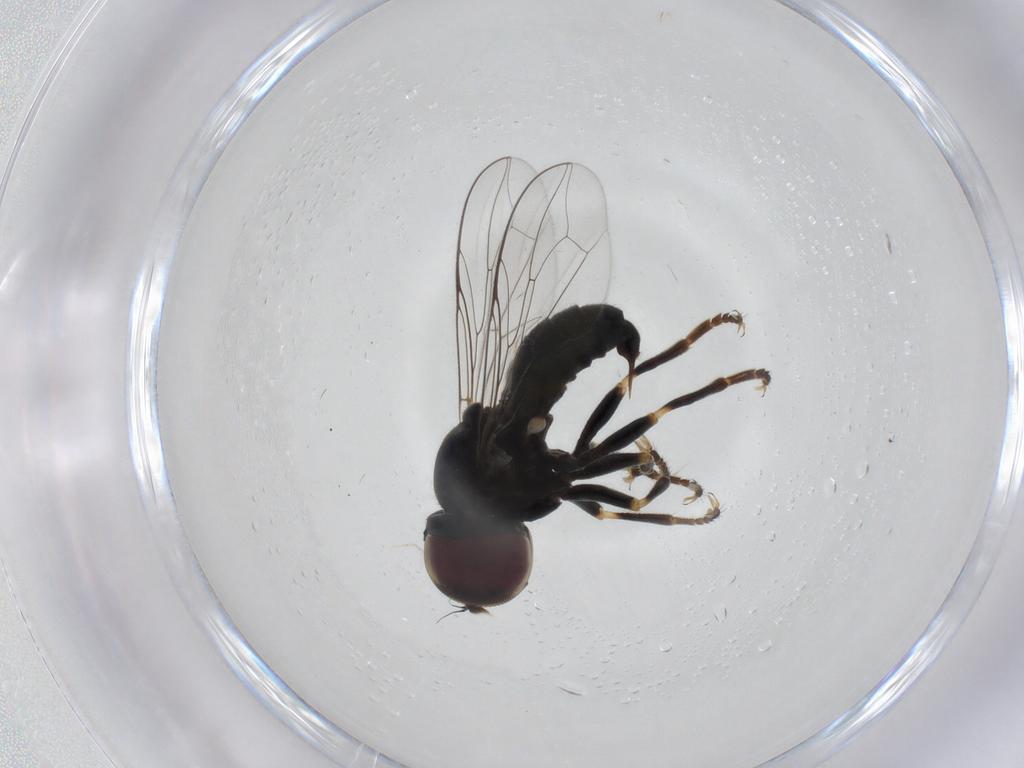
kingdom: Animalia
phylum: Arthropoda
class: Insecta
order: Diptera
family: Pipunculidae
